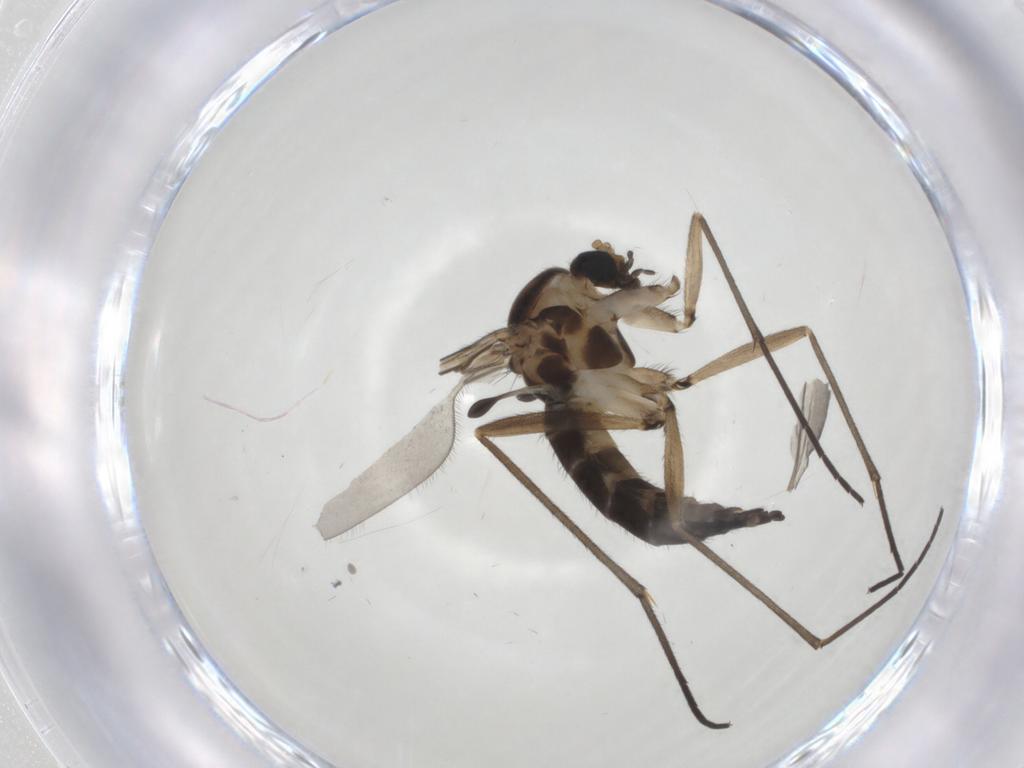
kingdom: Animalia
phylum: Arthropoda
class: Insecta
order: Diptera
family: Sciaridae
